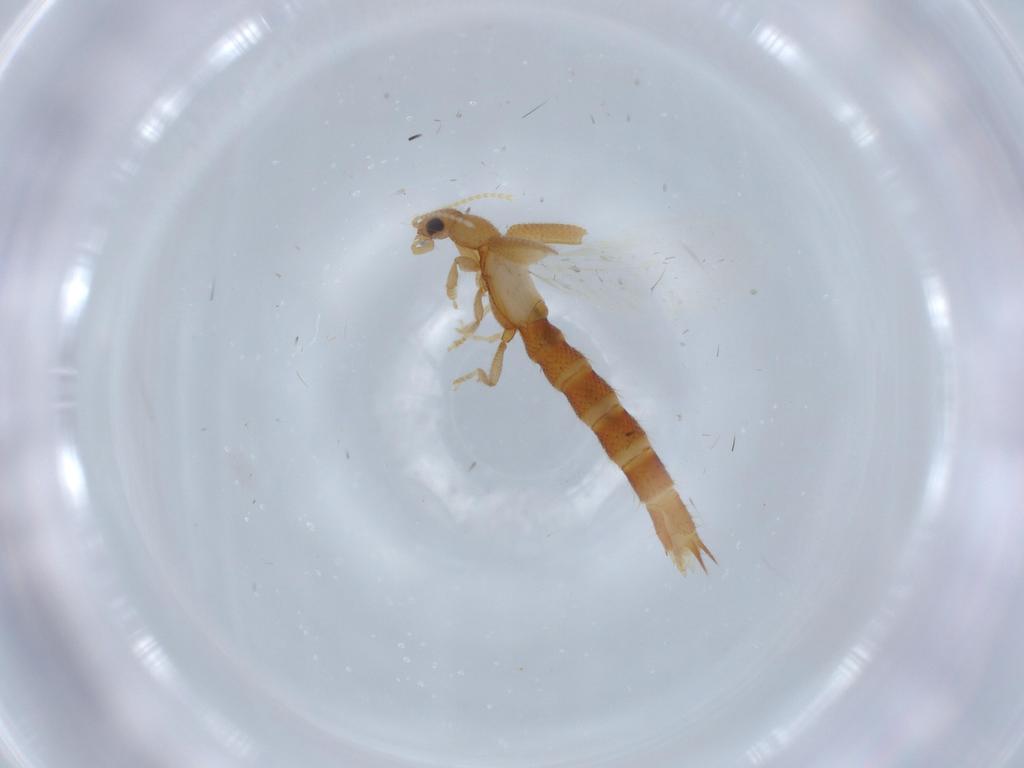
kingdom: Animalia
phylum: Arthropoda
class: Insecta
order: Coleoptera
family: Staphylinidae
